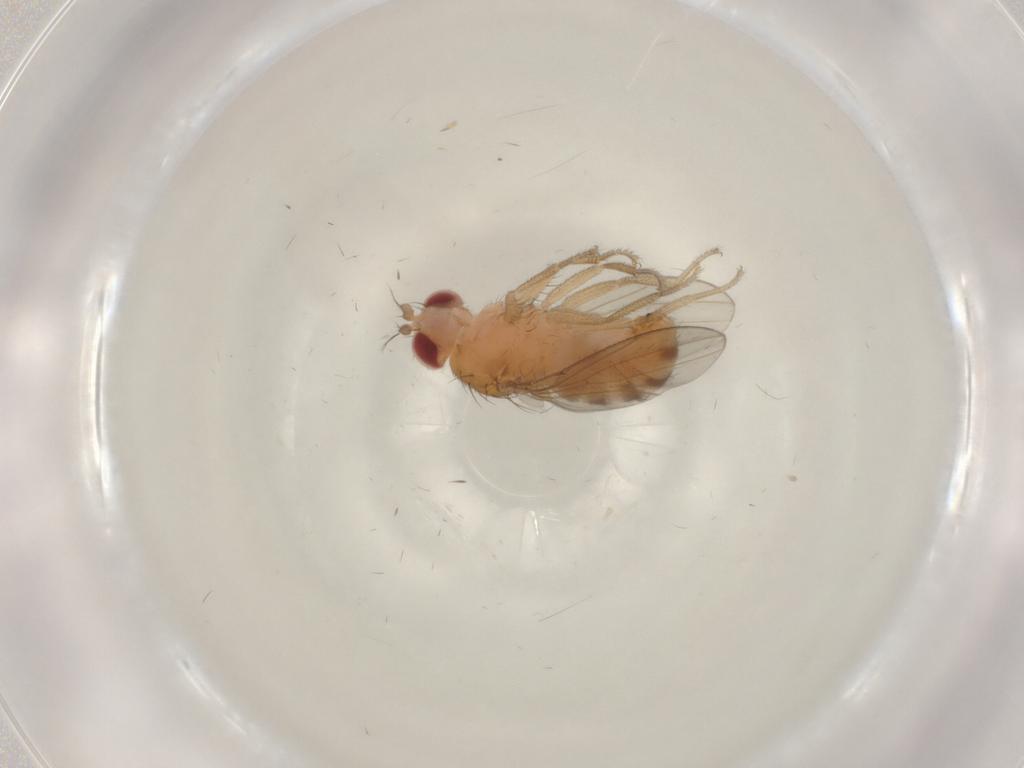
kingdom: Animalia
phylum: Arthropoda
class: Insecta
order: Diptera
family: Drosophilidae
